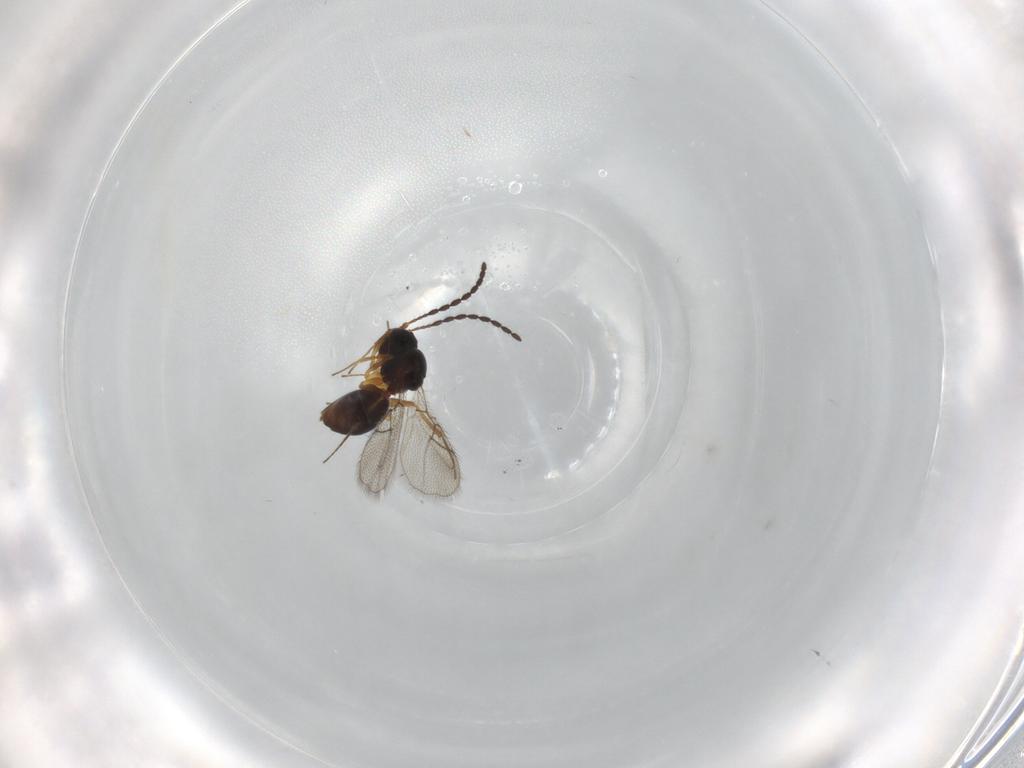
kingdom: Animalia
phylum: Arthropoda
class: Insecta
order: Hymenoptera
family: Figitidae
